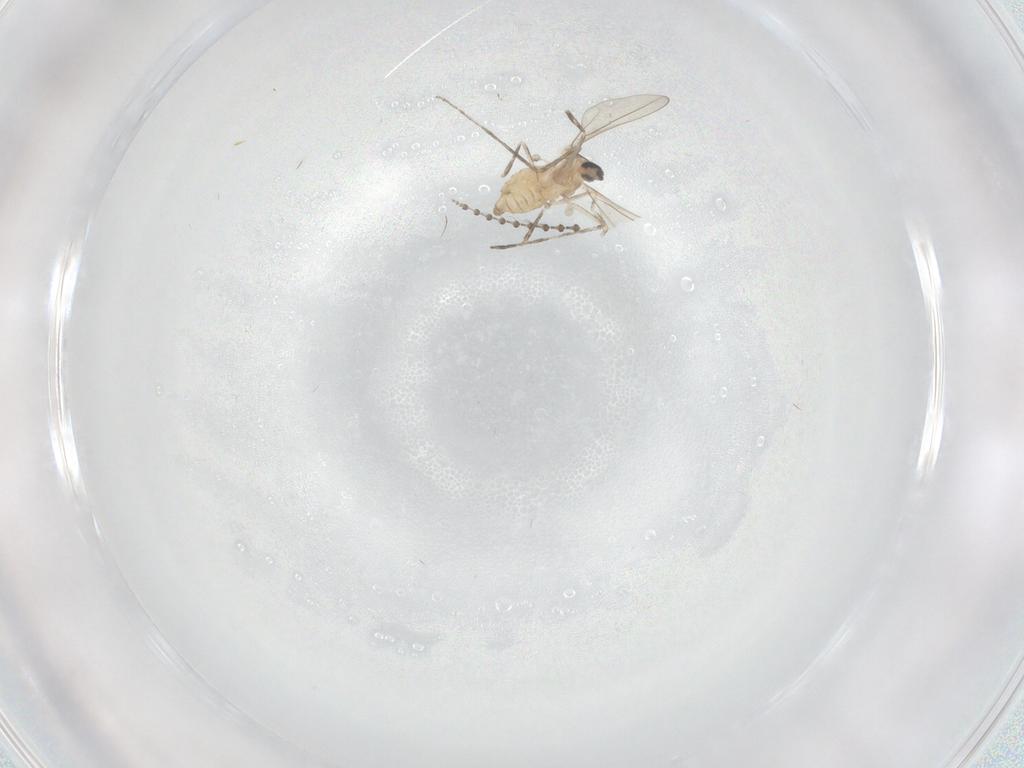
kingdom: Animalia
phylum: Arthropoda
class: Insecta
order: Diptera
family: Cecidomyiidae
